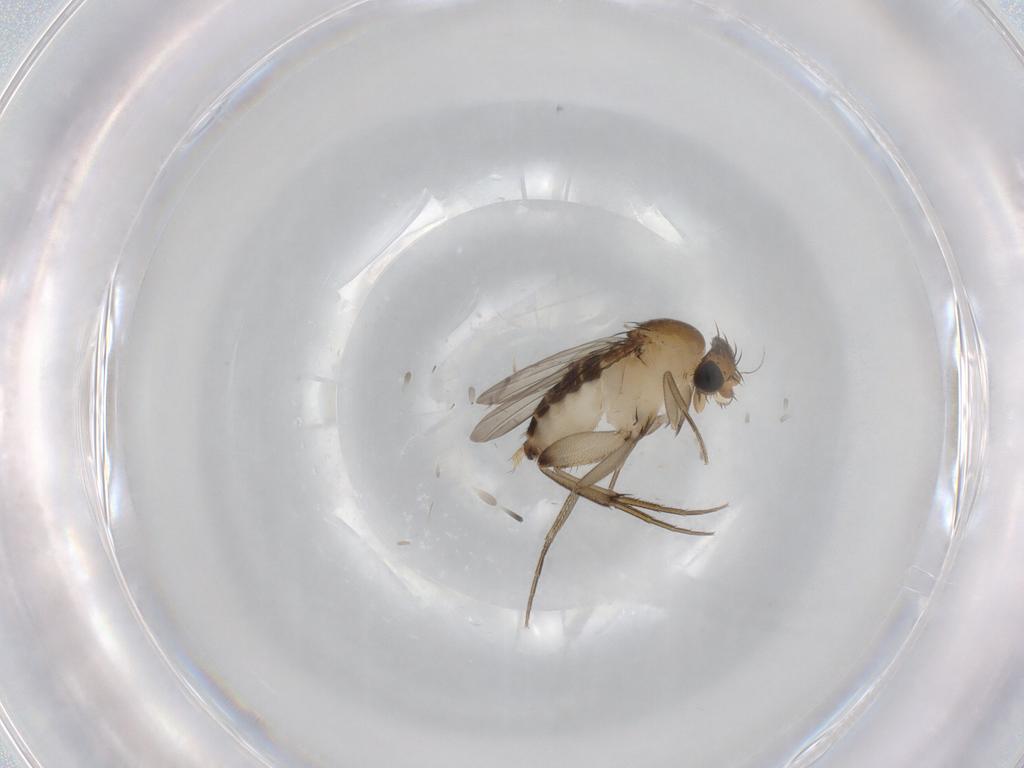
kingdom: Animalia
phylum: Arthropoda
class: Insecta
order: Diptera
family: Phoridae
